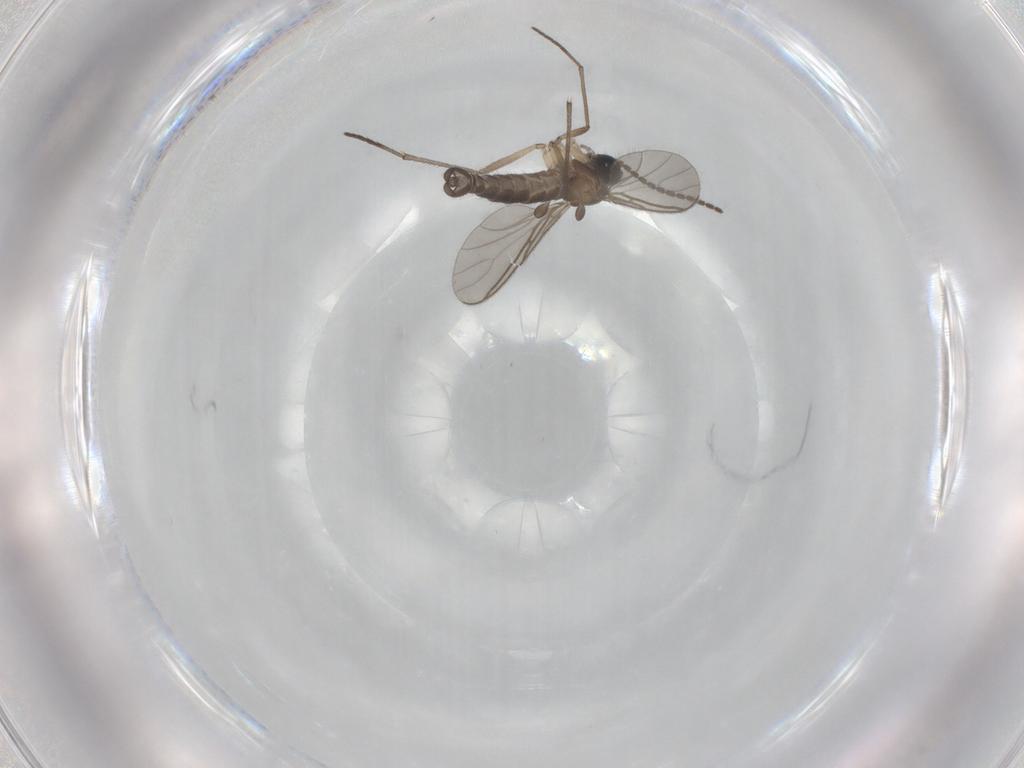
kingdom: Animalia
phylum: Arthropoda
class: Insecta
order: Diptera
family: Sciaridae
